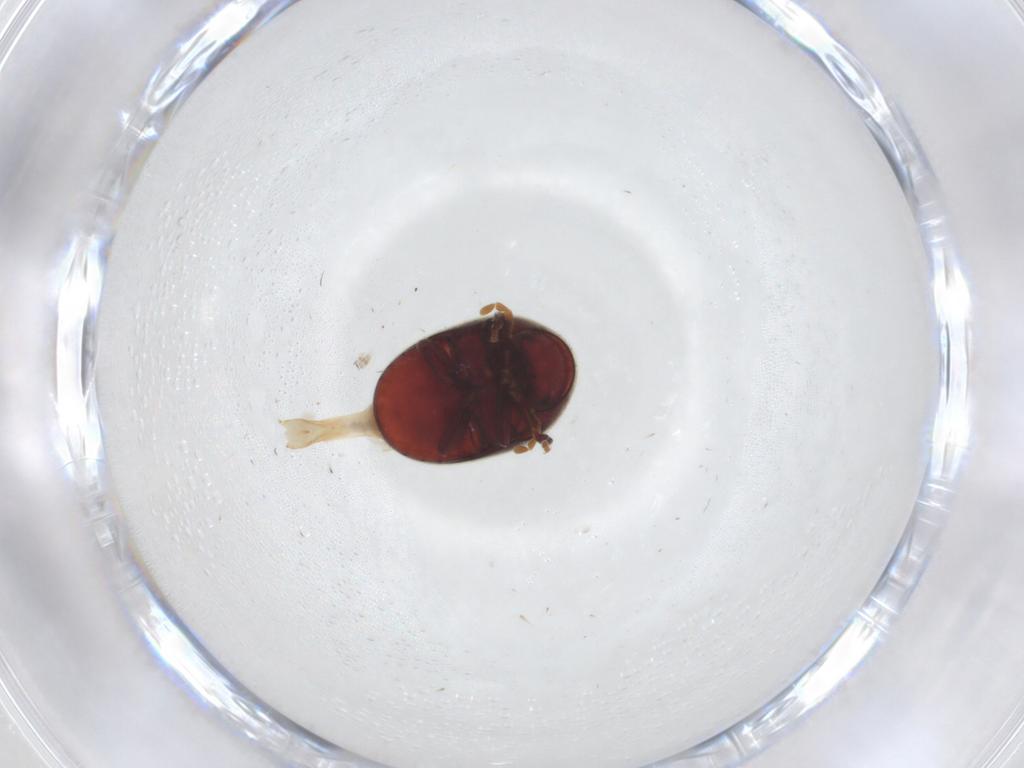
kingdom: Animalia
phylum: Arthropoda
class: Insecta
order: Coleoptera
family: Ptinidae
